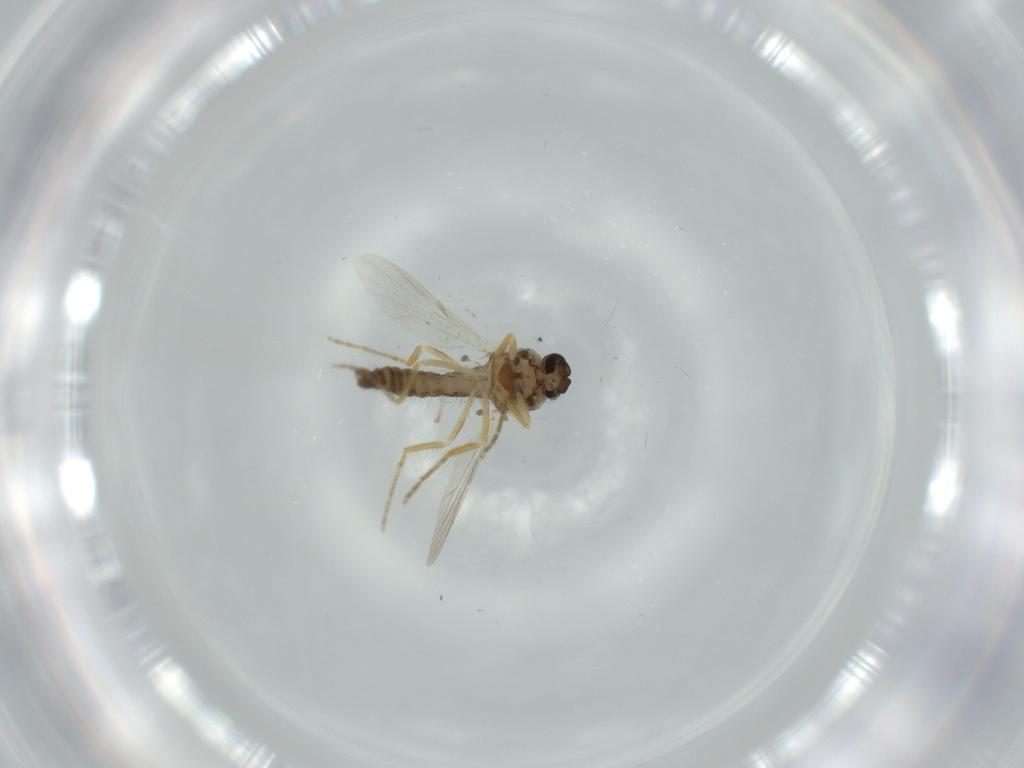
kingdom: Animalia
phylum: Arthropoda
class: Insecta
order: Diptera
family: Ceratopogonidae
